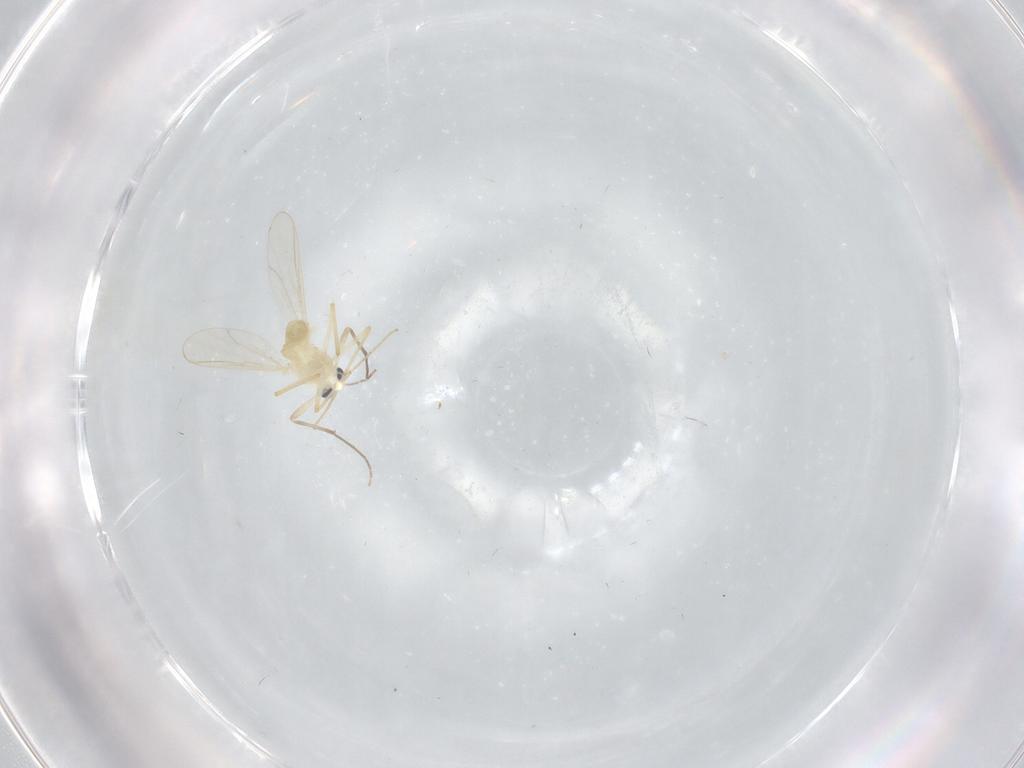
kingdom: Animalia
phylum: Arthropoda
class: Insecta
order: Diptera
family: Chironomidae
